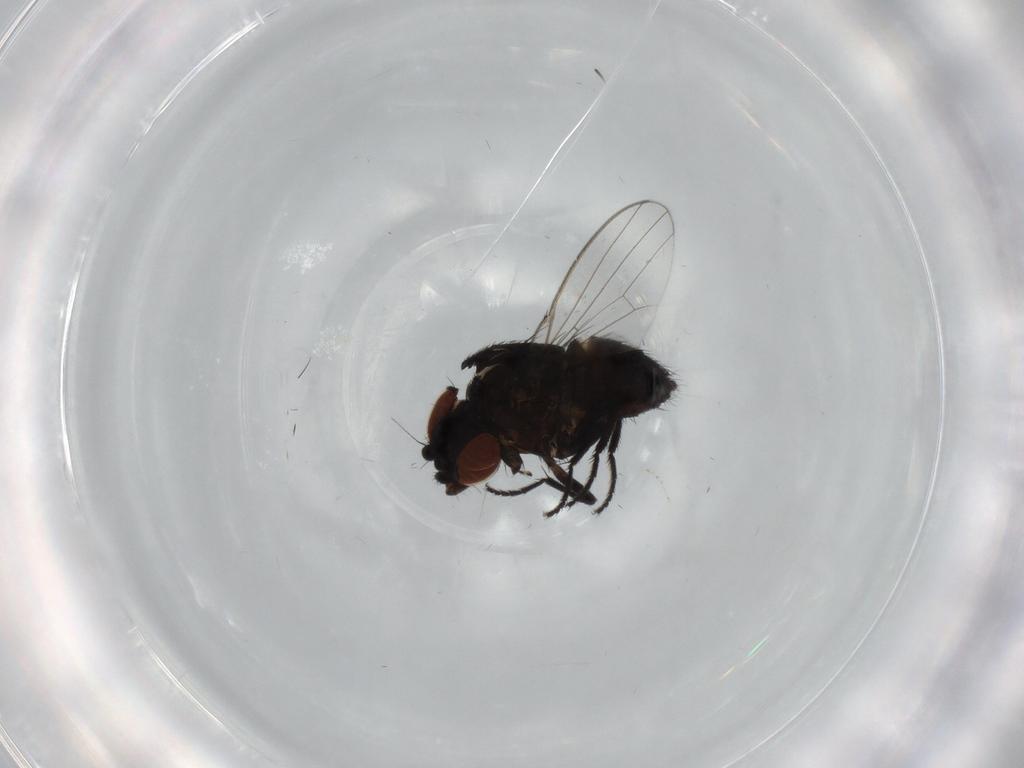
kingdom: Animalia
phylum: Arthropoda
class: Insecta
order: Diptera
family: Milichiidae
